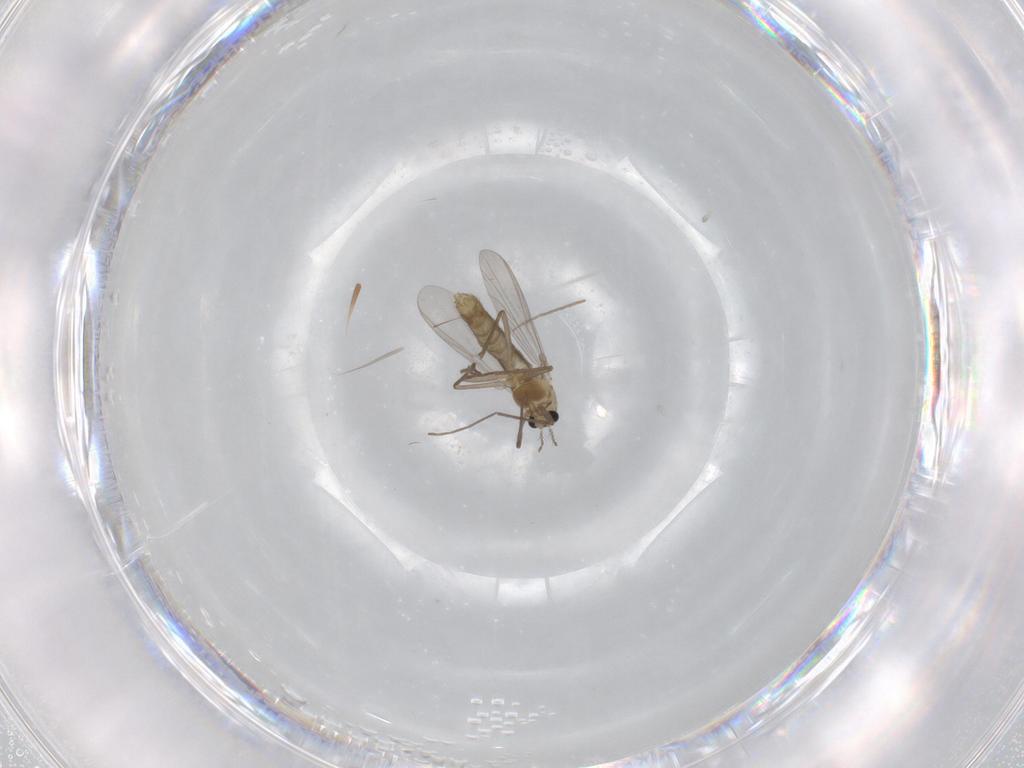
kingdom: Animalia
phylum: Arthropoda
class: Insecta
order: Diptera
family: Chironomidae
